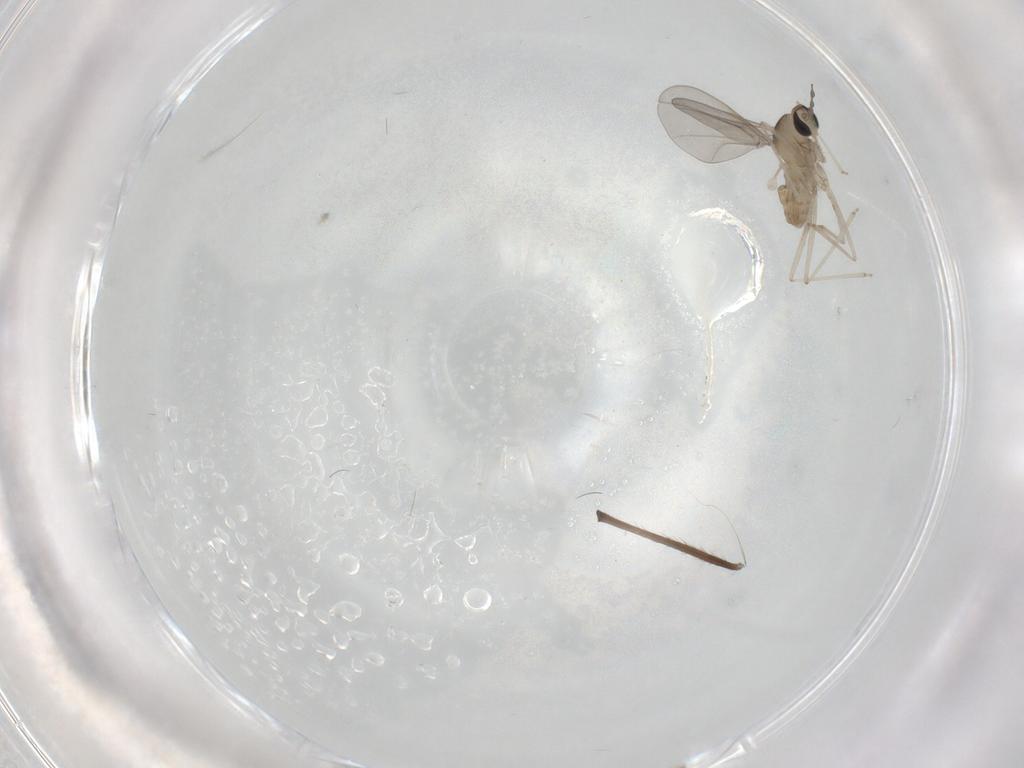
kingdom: Animalia
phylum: Arthropoda
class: Insecta
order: Diptera
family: Cecidomyiidae
